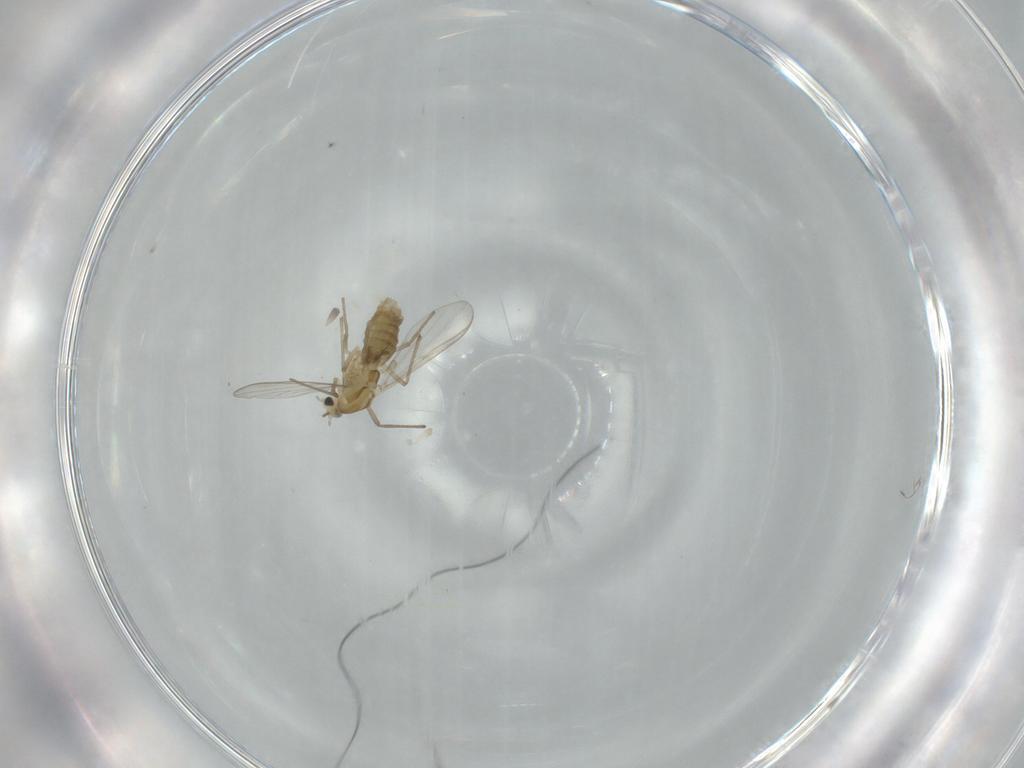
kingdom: Animalia
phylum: Arthropoda
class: Insecta
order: Diptera
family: Chironomidae
